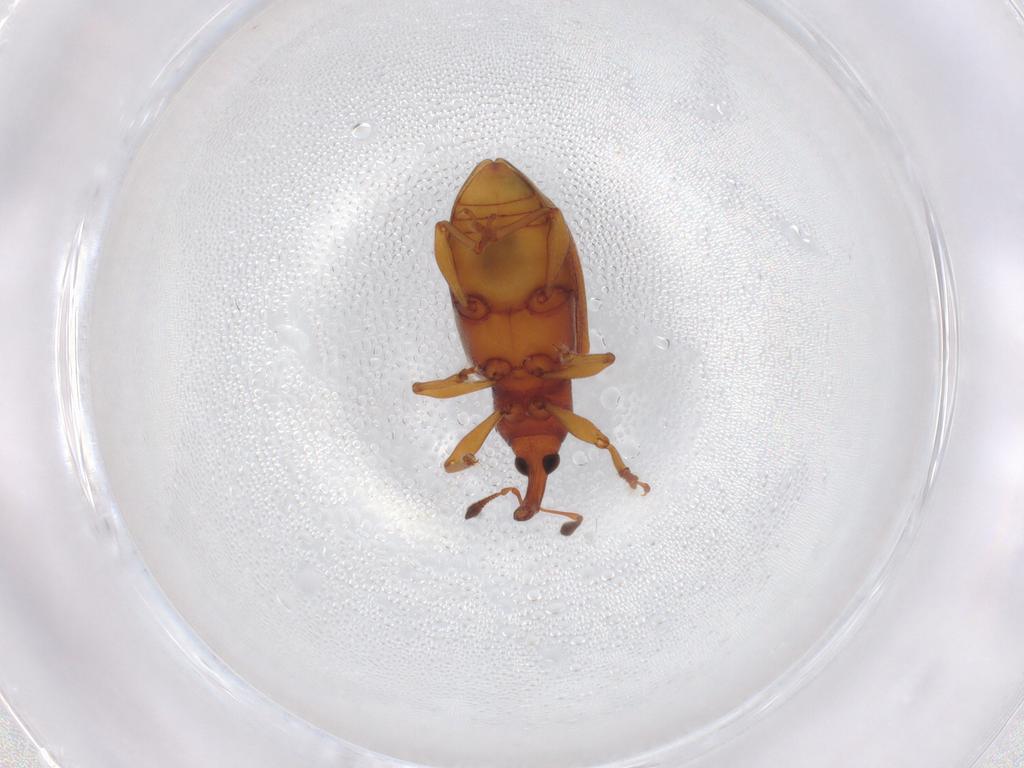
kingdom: Animalia
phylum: Arthropoda
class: Insecta
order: Coleoptera
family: Curculionidae
